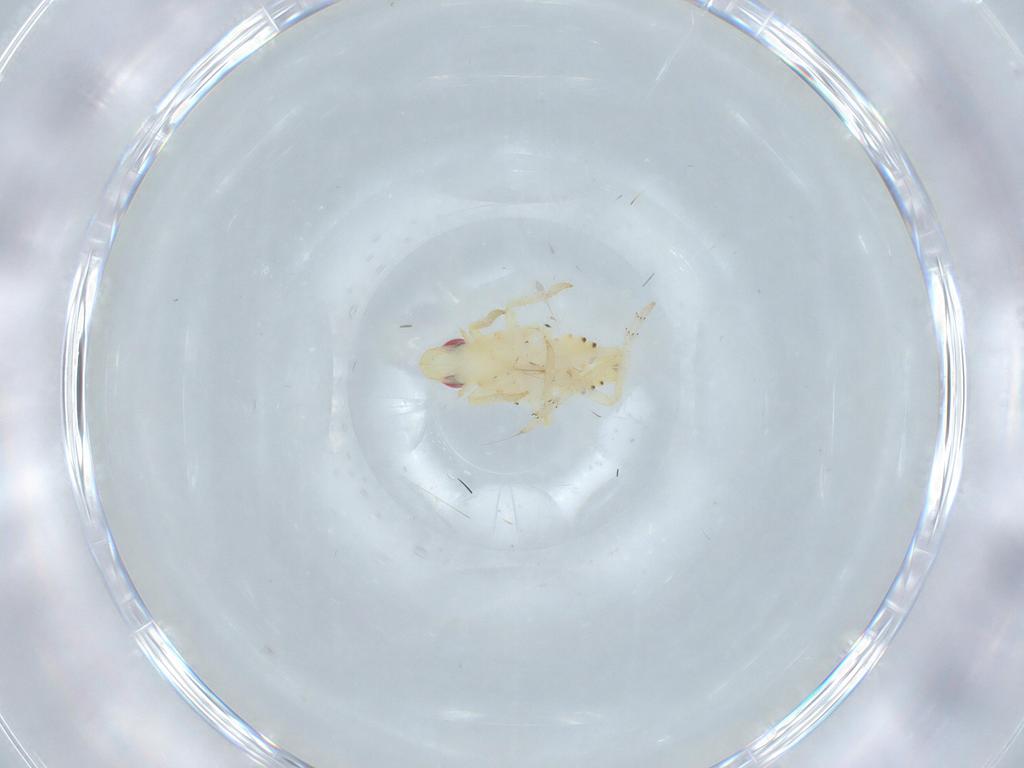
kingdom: Animalia
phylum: Arthropoda
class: Insecta
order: Hemiptera
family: Tropiduchidae
